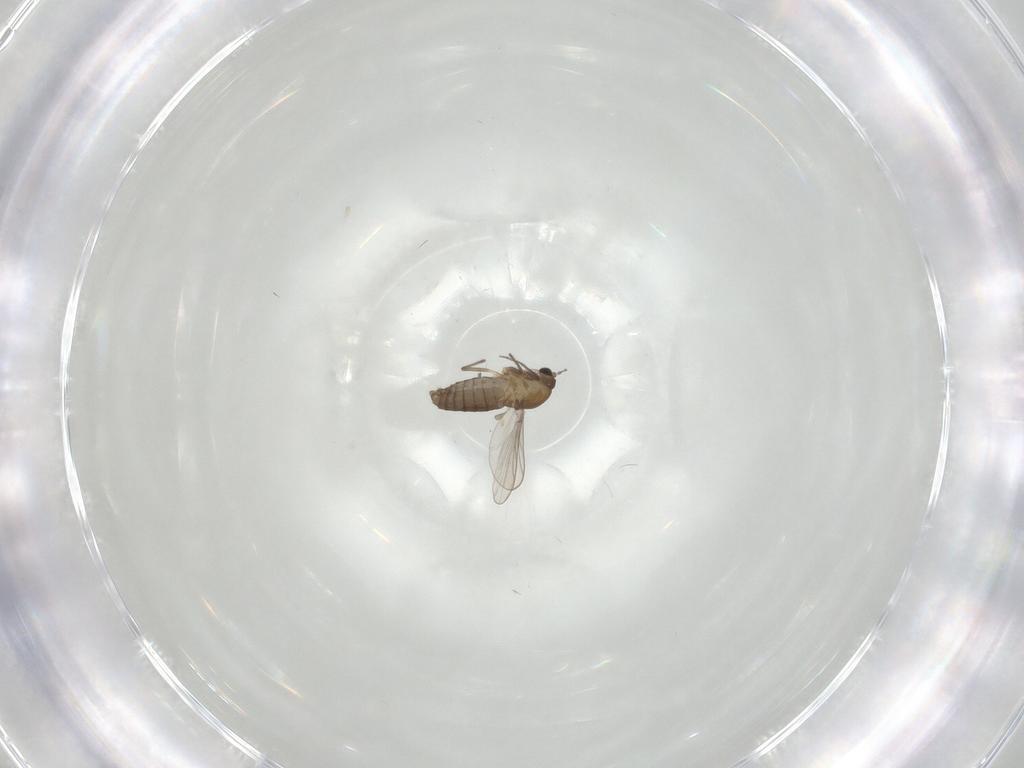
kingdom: Animalia
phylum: Arthropoda
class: Insecta
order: Diptera
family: Chironomidae
